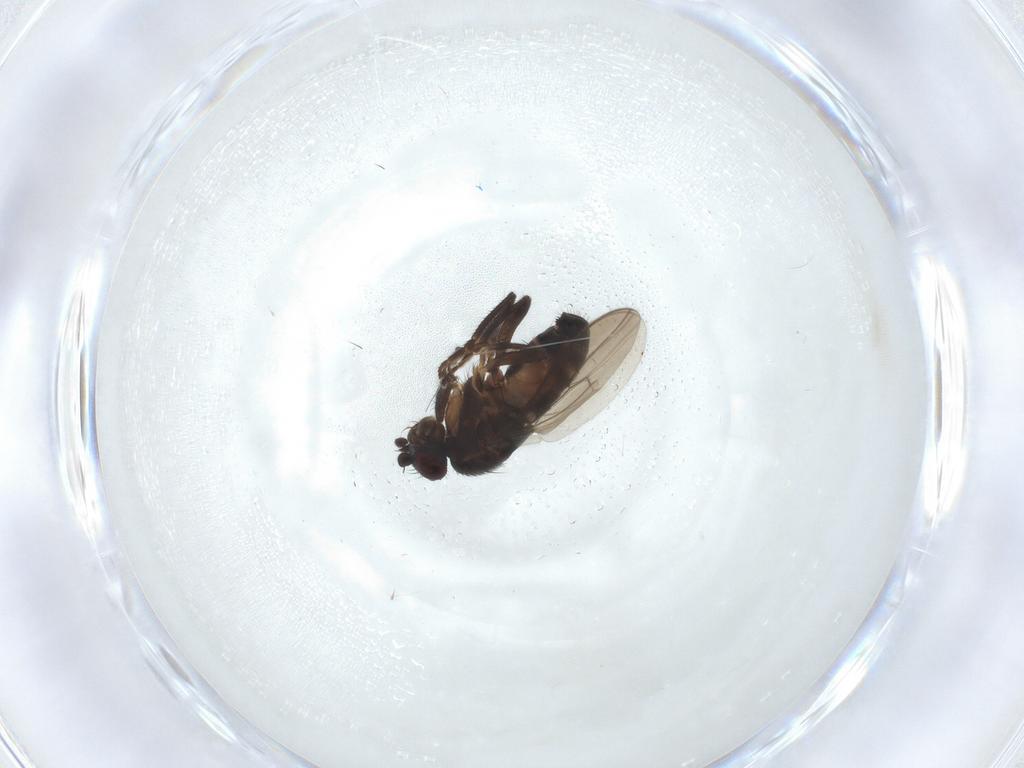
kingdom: Animalia
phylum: Arthropoda
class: Insecta
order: Diptera
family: Sphaeroceridae
